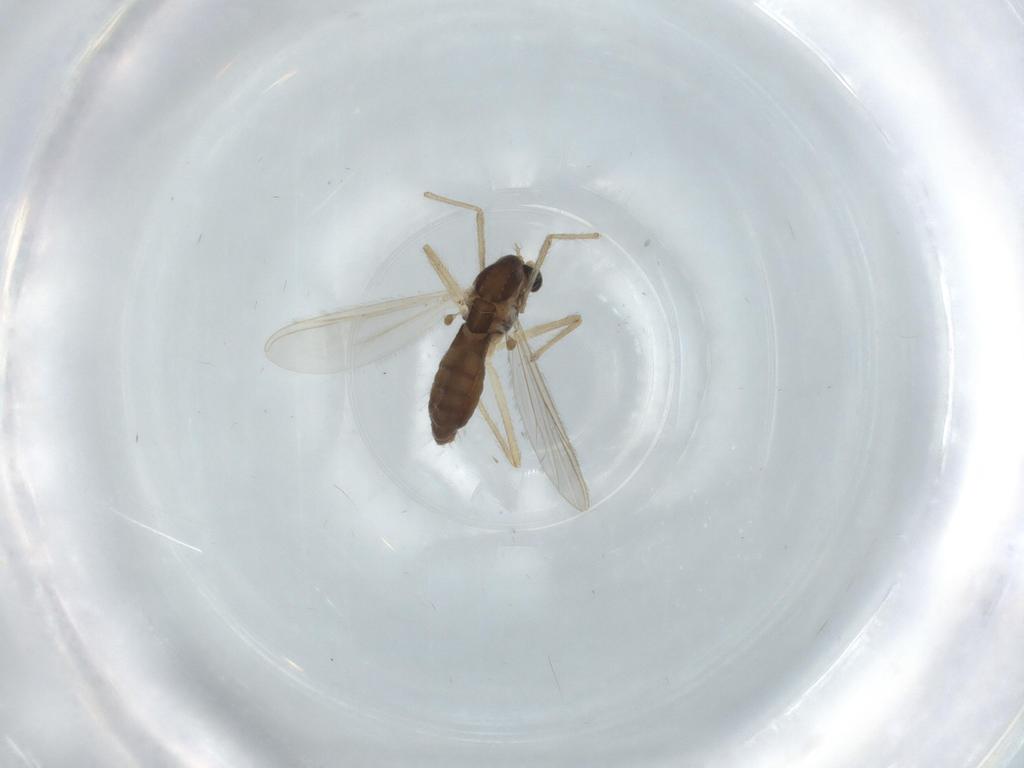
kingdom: Animalia
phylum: Arthropoda
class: Insecta
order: Diptera
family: Chironomidae
